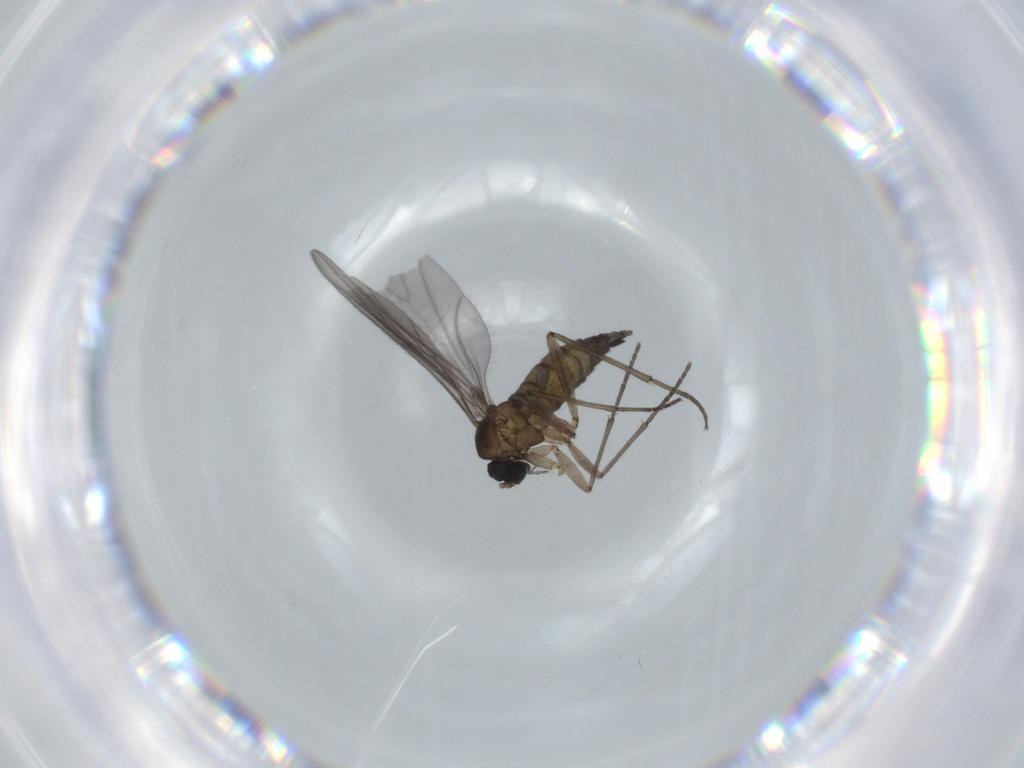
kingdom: Animalia
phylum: Arthropoda
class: Insecta
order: Diptera
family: Sciaridae
